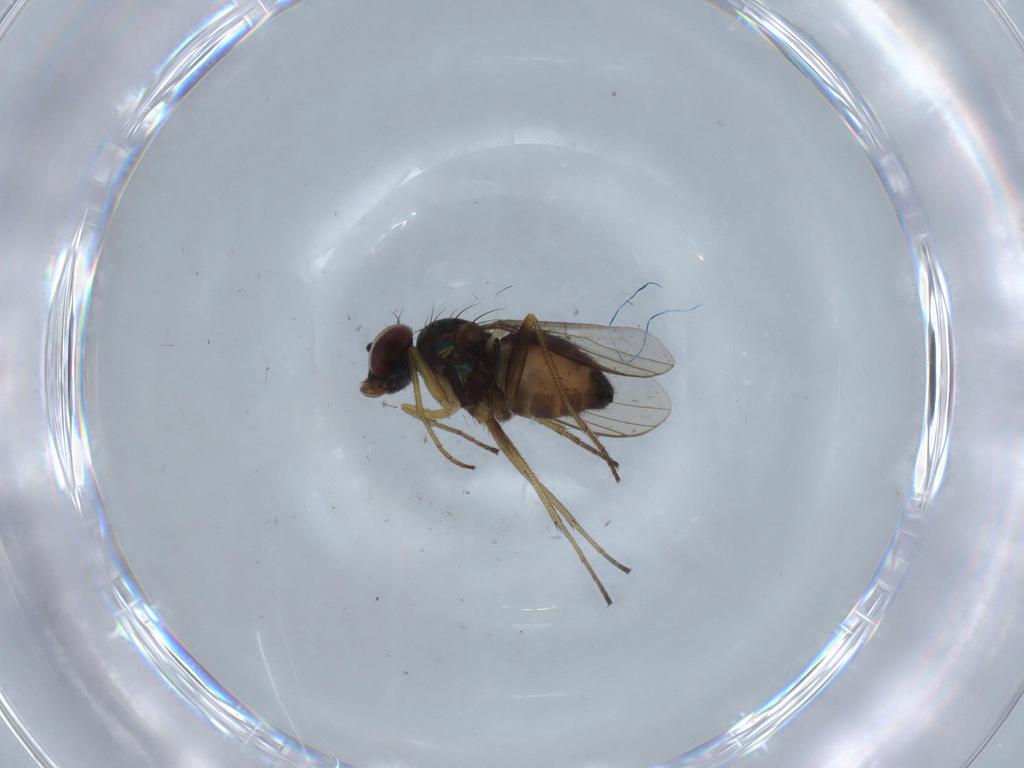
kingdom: Animalia
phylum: Arthropoda
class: Insecta
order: Diptera
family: Dolichopodidae
